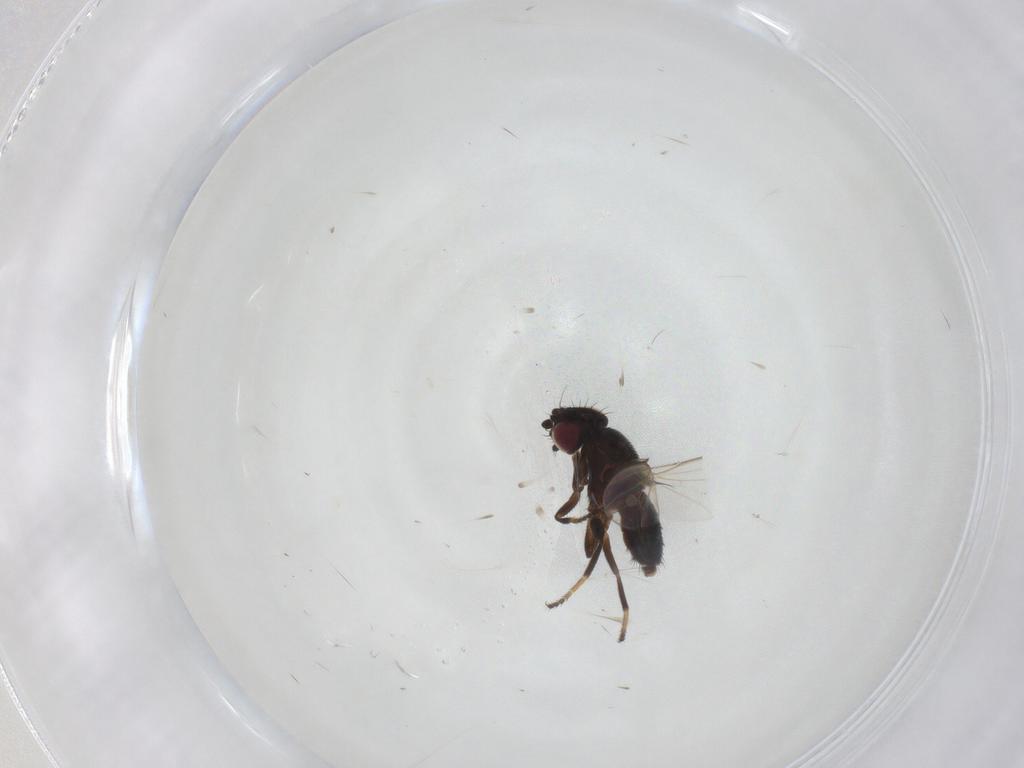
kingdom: Animalia
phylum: Arthropoda
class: Insecta
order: Diptera
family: Milichiidae
